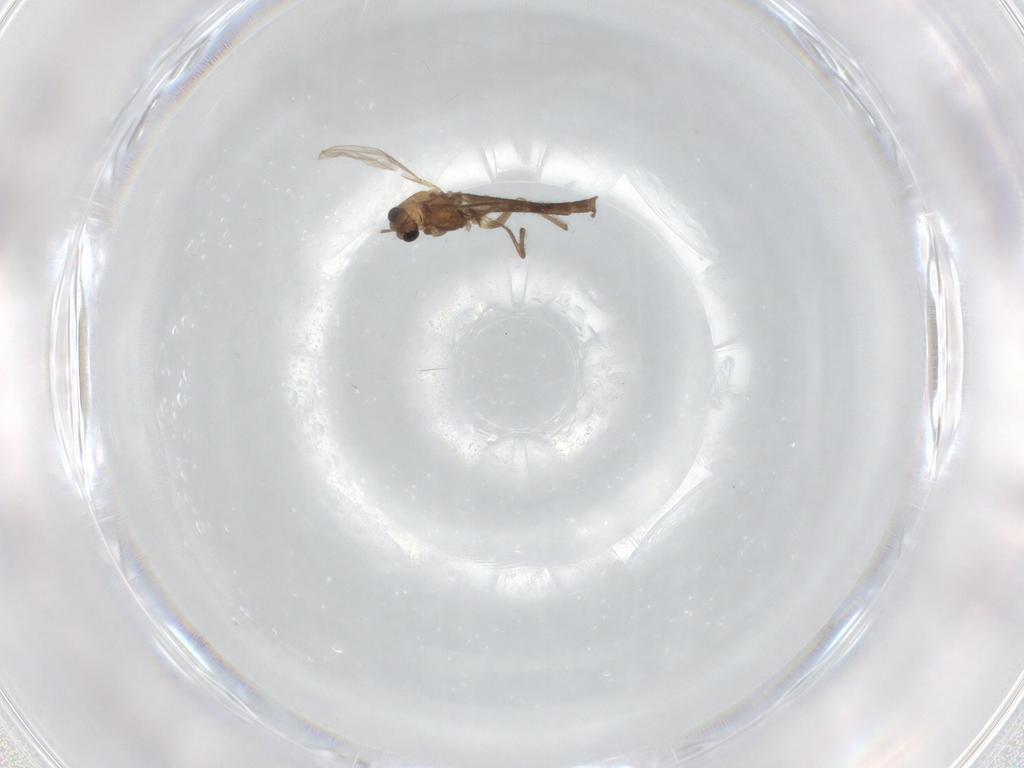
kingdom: Animalia
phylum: Arthropoda
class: Insecta
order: Diptera
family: Chironomidae
